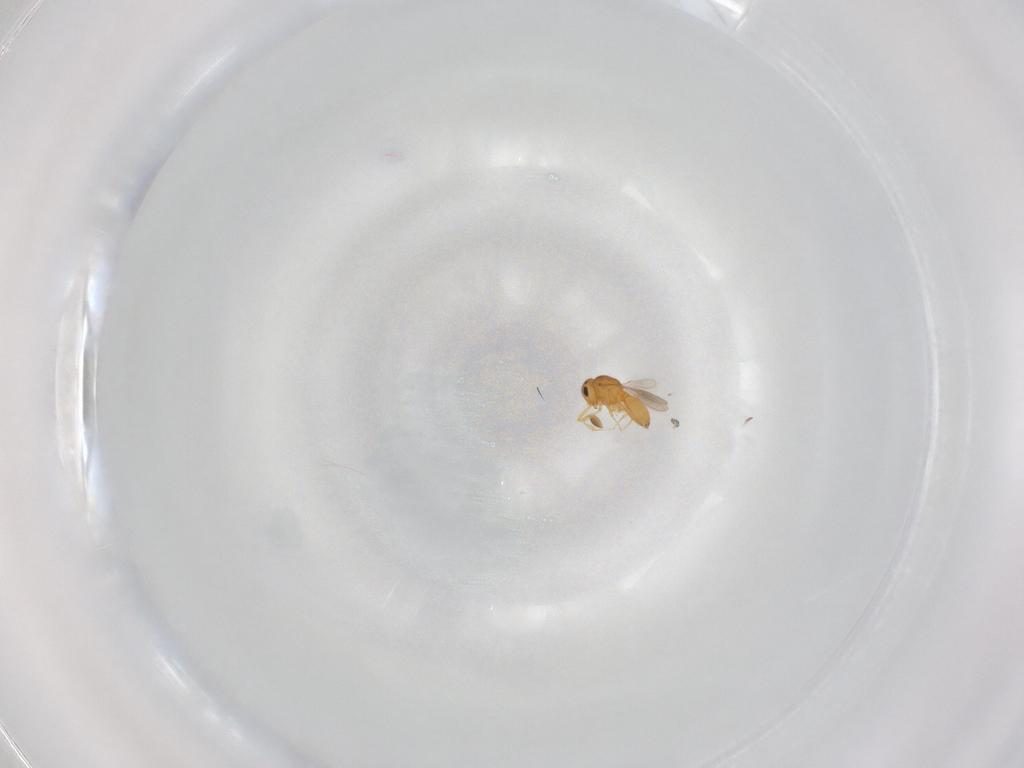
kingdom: Animalia
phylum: Arthropoda
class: Insecta
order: Hymenoptera
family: Scelionidae
